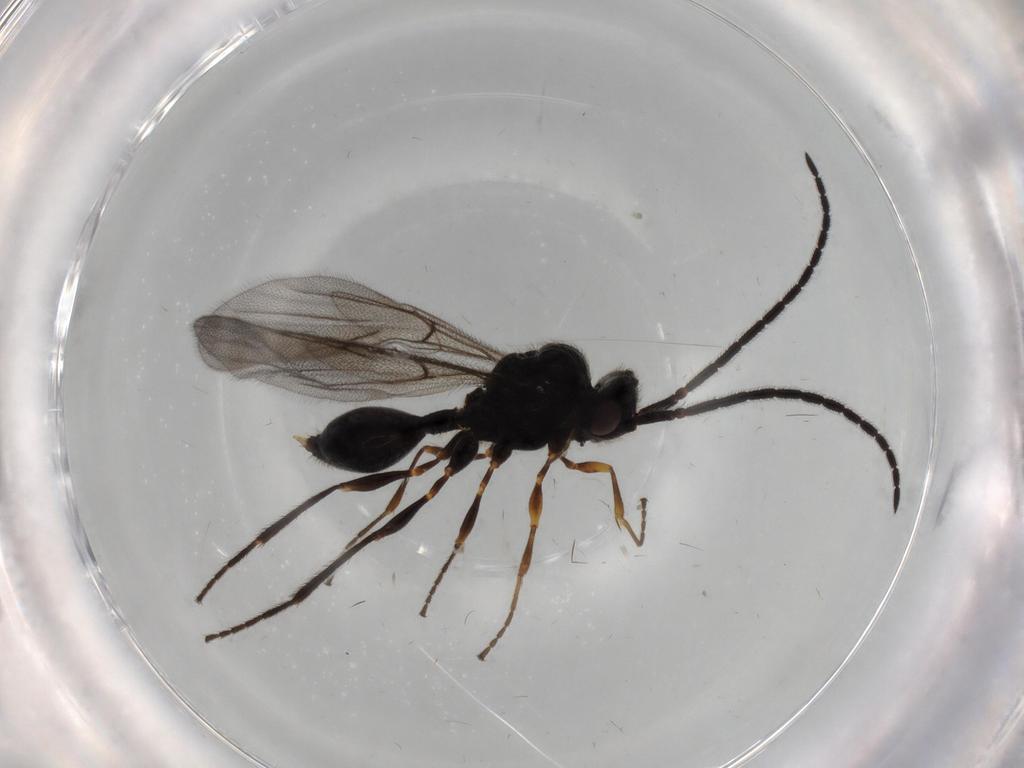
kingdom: Animalia
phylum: Arthropoda
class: Insecta
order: Hymenoptera
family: Diapriidae
